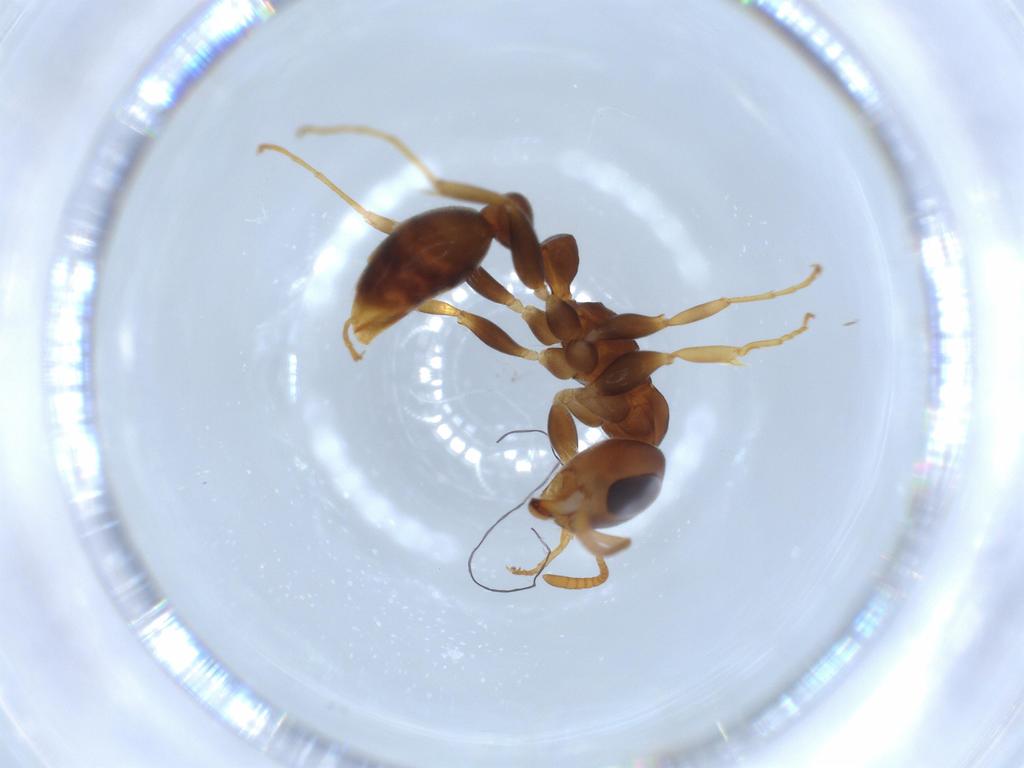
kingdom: Animalia
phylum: Arthropoda
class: Insecta
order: Hymenoptera
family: Formicidae
